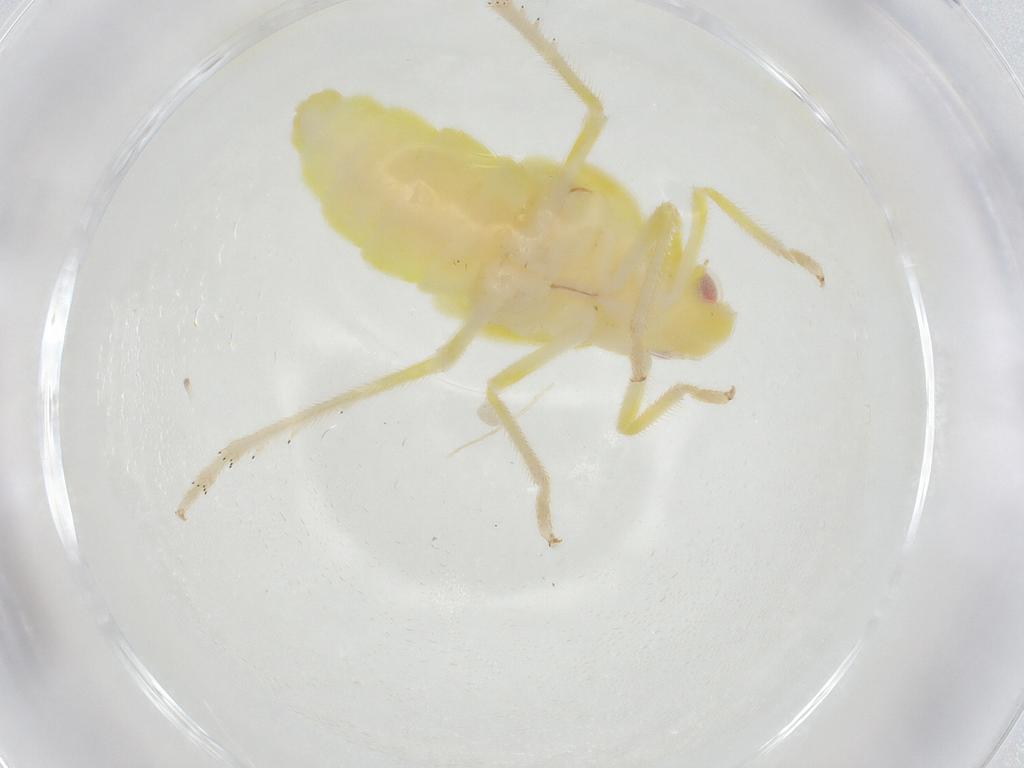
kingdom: Animalia
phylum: Arthropoda
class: Insecta
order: Hemiptera
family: Tropiduchidae
